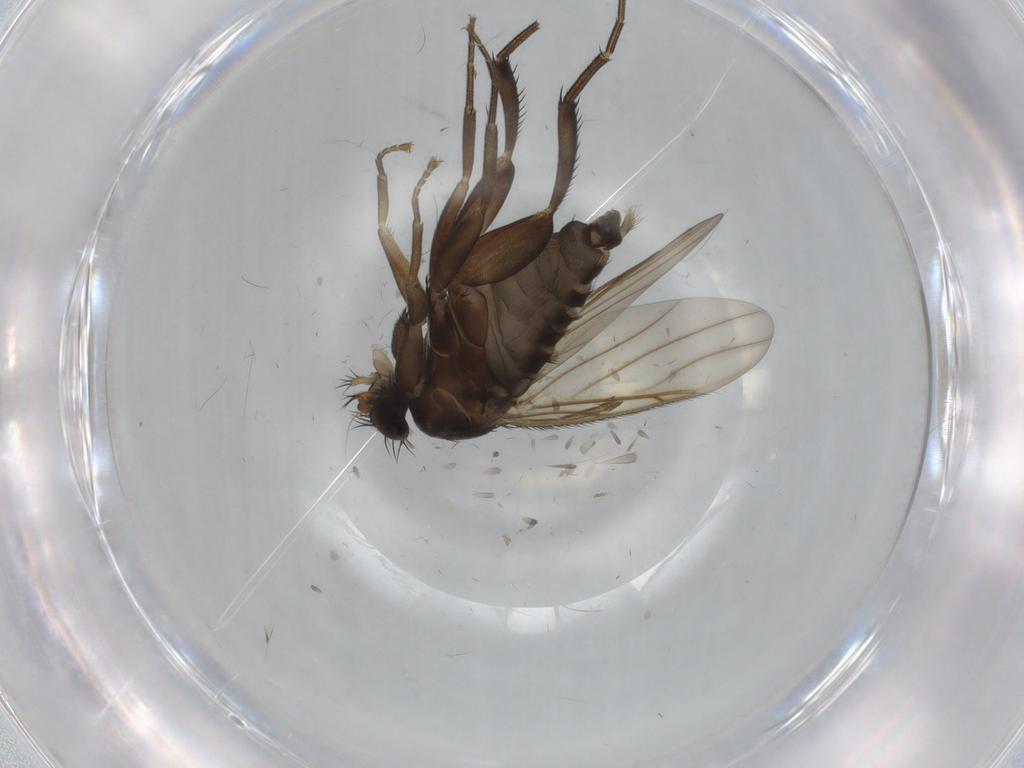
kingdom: Animalia
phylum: Arthropoda
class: Insecta
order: Diptera
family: Phoridae
